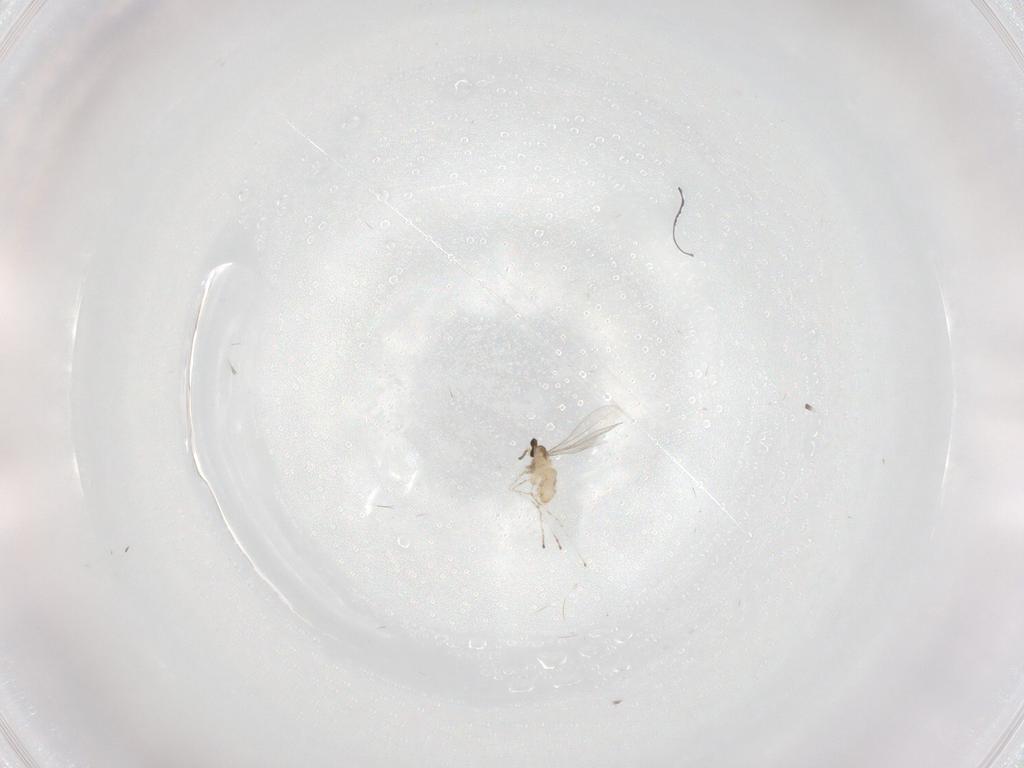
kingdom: Animalia
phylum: Arthropoda
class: Insecta
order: Diptera
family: Cecidomyiidae
